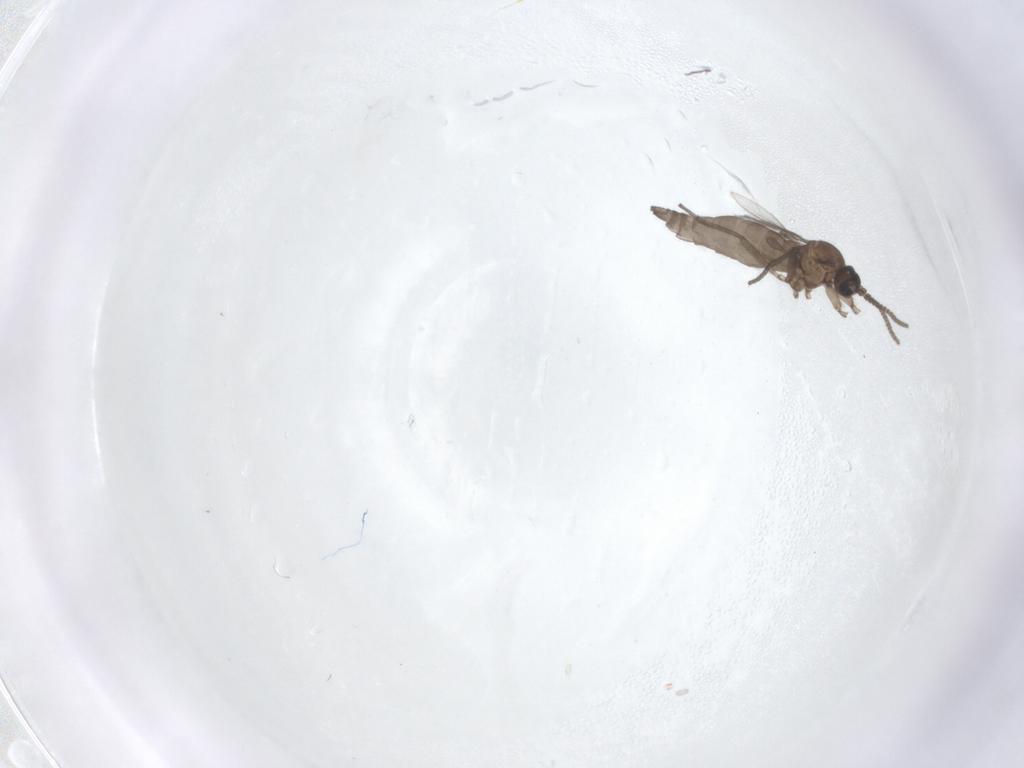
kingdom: Animalia
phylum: Arthropoda
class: Insecta
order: Diptera
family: Sciaridae
